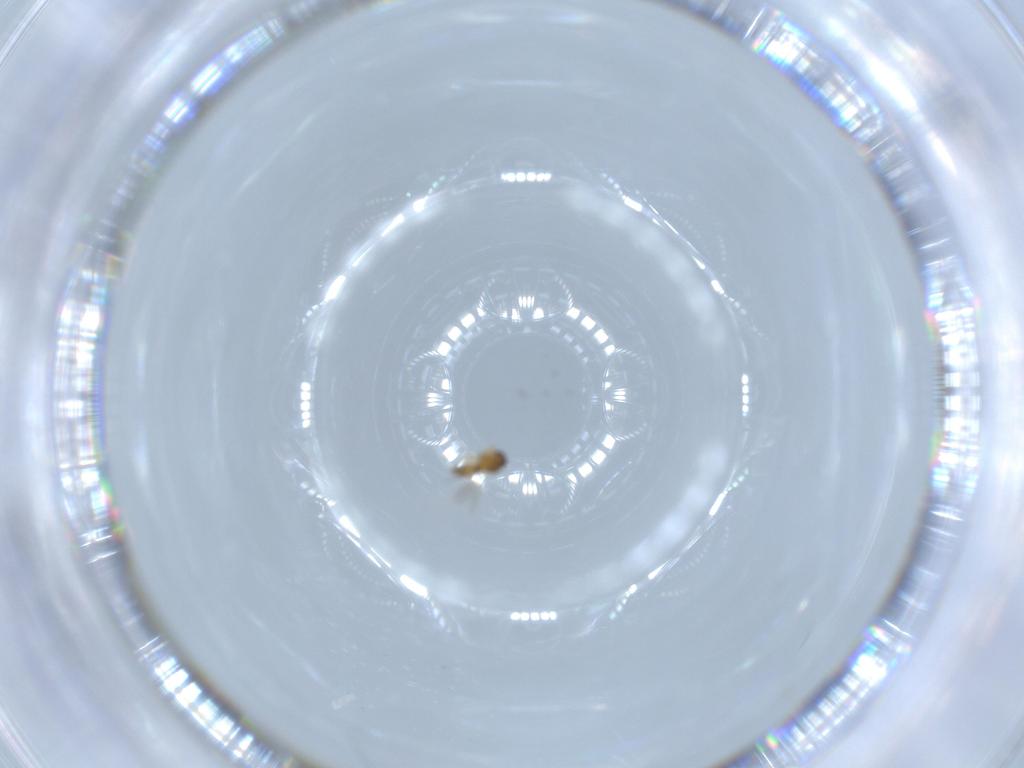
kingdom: Animalia
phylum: Arthropoda
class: Insecta
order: Hymenoptera
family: Platygastridae
